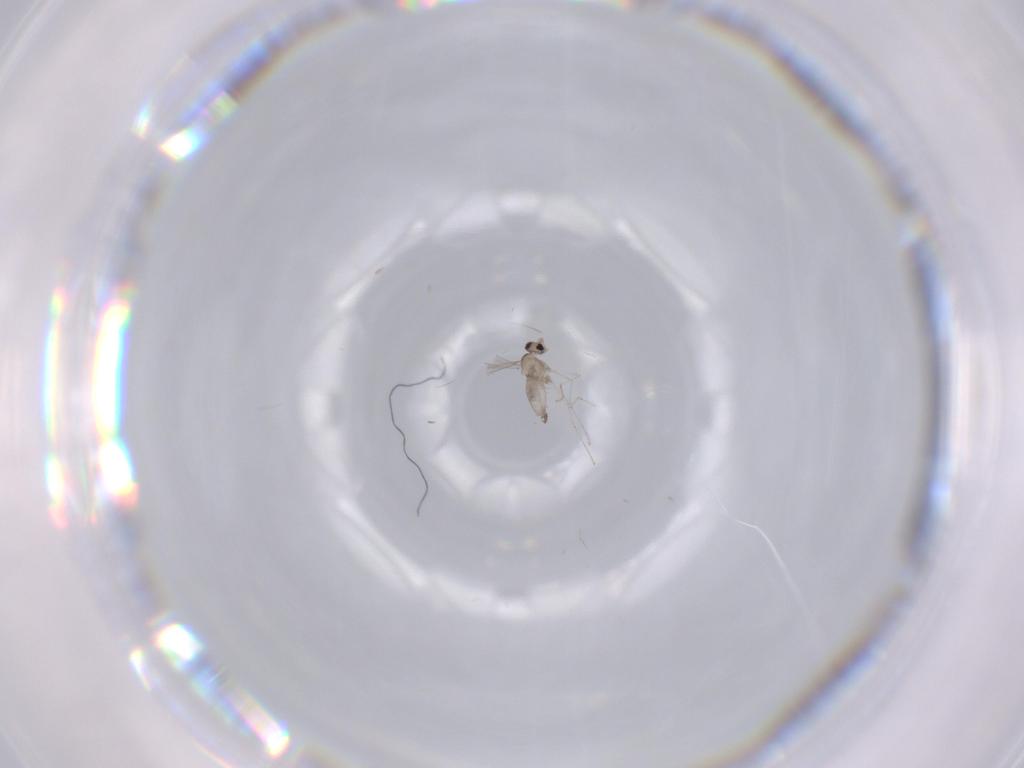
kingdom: Animalia
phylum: Arthropoda
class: Insecta
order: Diptera
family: Cecidomyiidae
